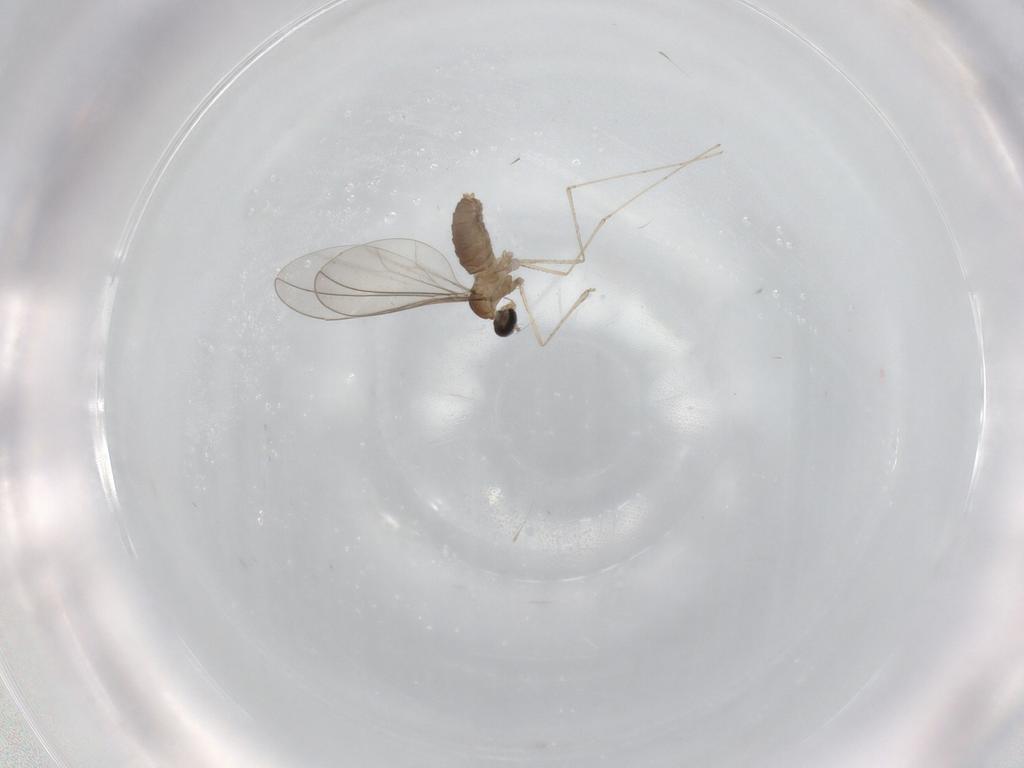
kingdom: Animalia
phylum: Arthropoda
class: Insecta
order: Diptera
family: Cecidomyiidae
